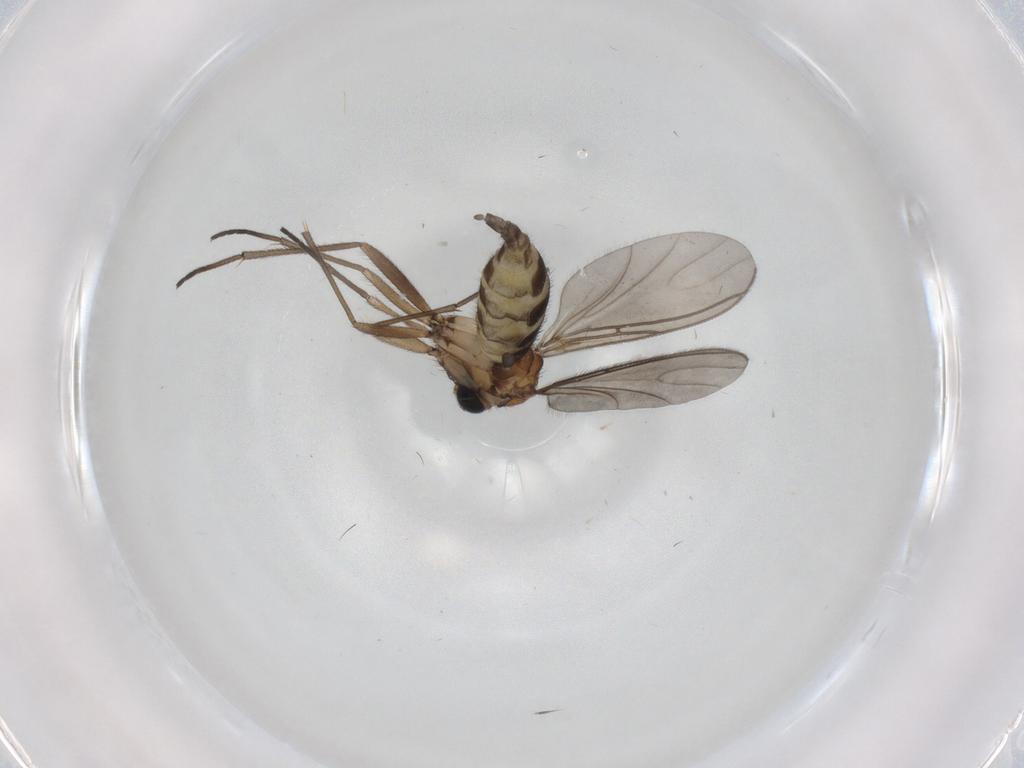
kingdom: Animalia
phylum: Arthropoda
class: Insecta
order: Diptera
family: Sciaridae
